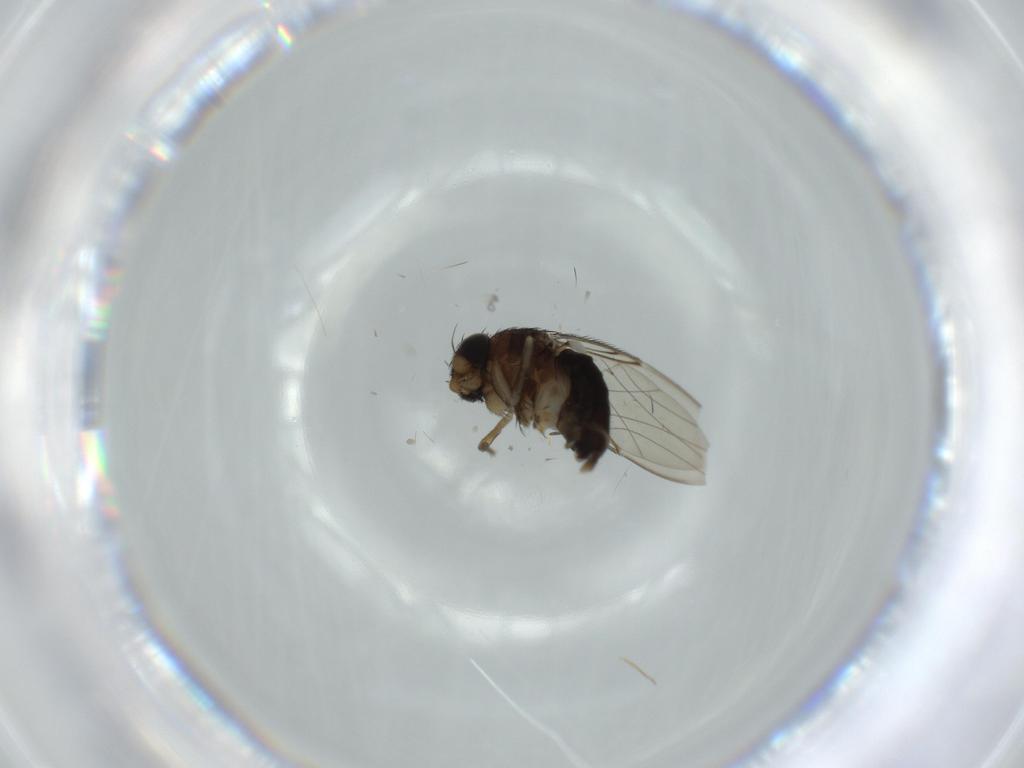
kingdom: Animalia
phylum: Arthropoda
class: Insecta
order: Diptera
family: Phoridae
